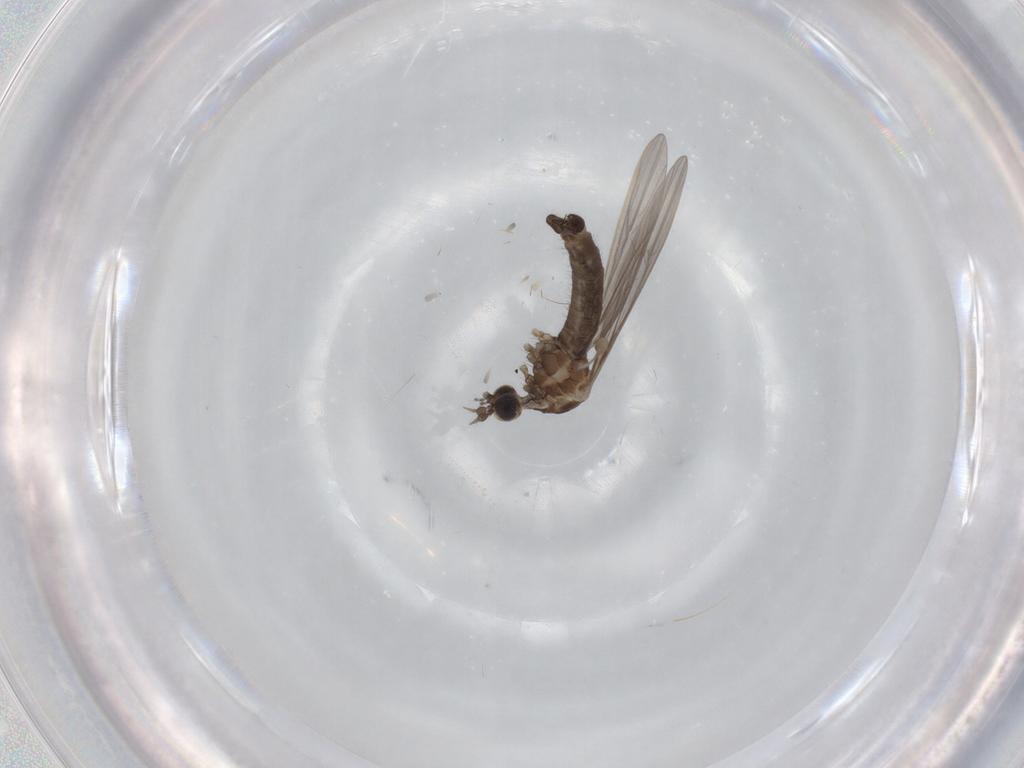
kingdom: Animalia
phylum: Arthropoda
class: Insecta
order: Diptera
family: Limoniidae
